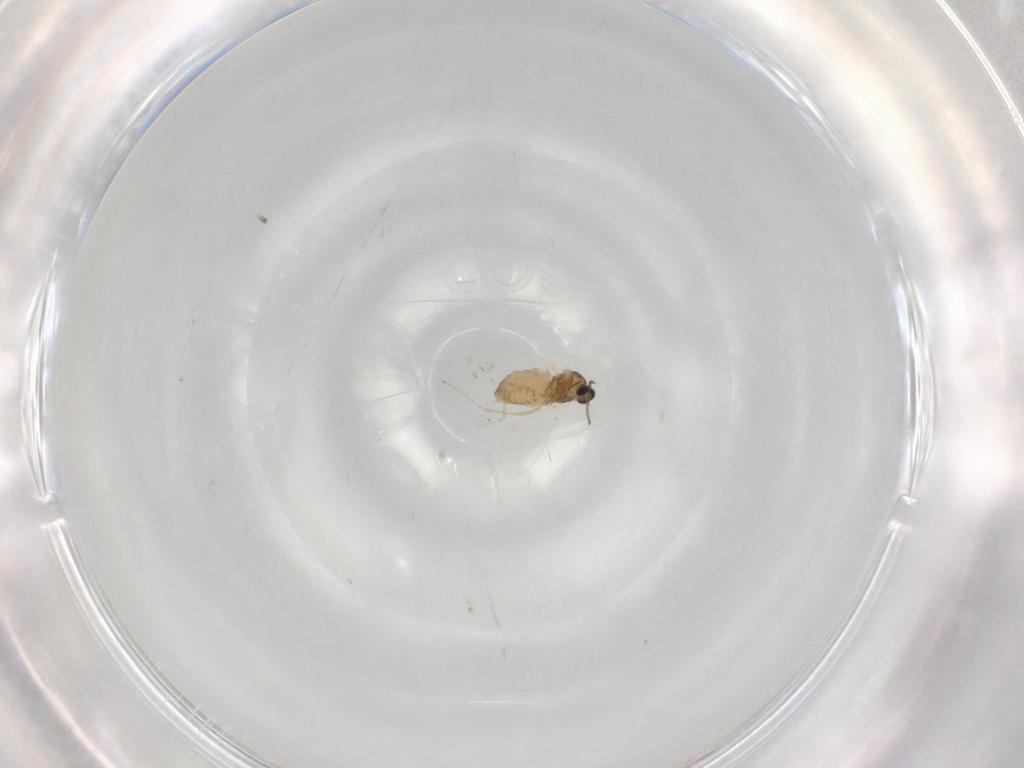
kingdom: Animalia
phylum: Arthropoda
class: Insecta
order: Diptera
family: Cecidomyiidae
